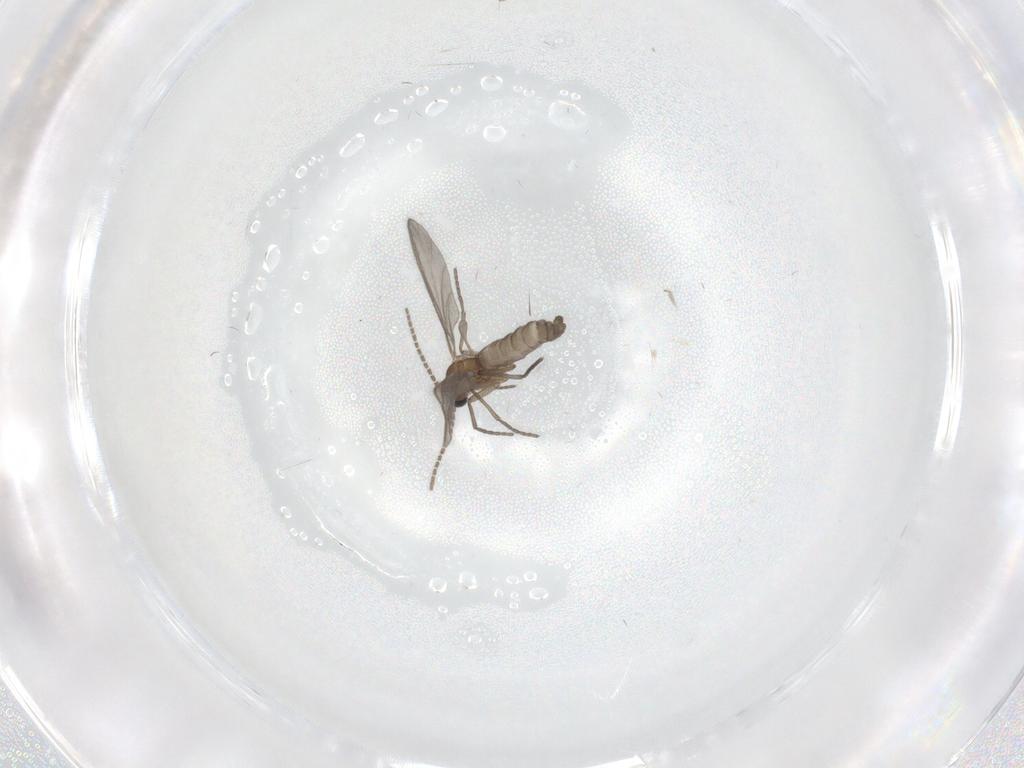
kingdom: Animalia
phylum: Arthropoda
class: Insecta
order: Diptera
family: Sciaridae
